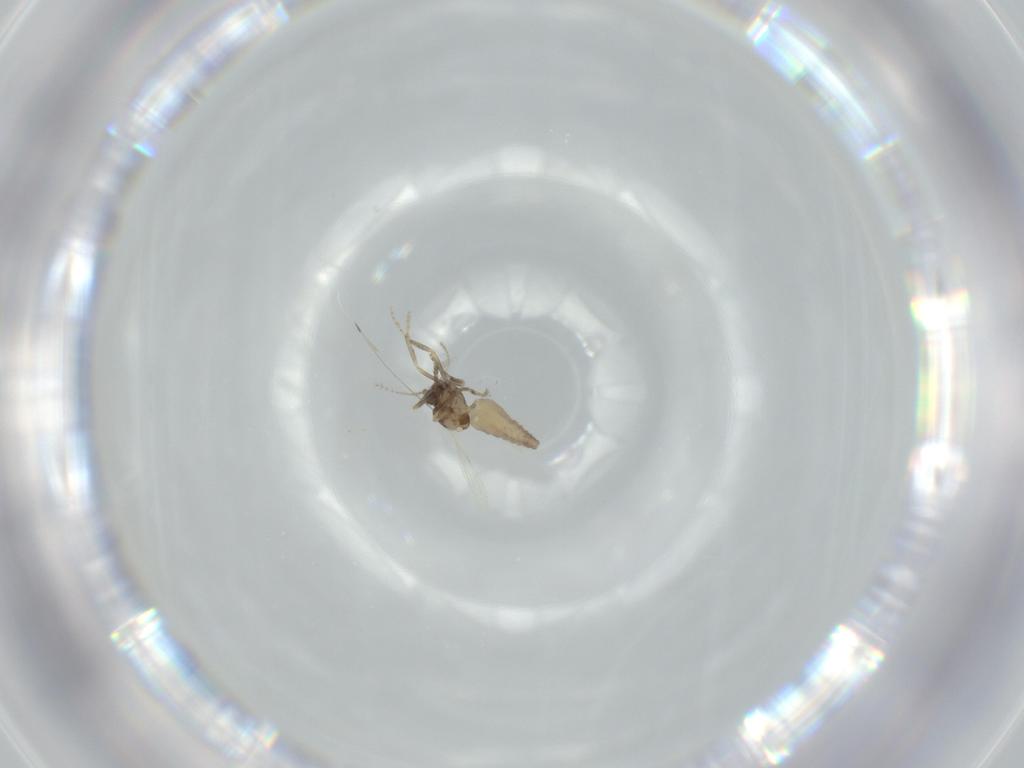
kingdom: Animalia
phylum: Arthropoda
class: Insecta
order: Diptera
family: Ceratopogonidae
